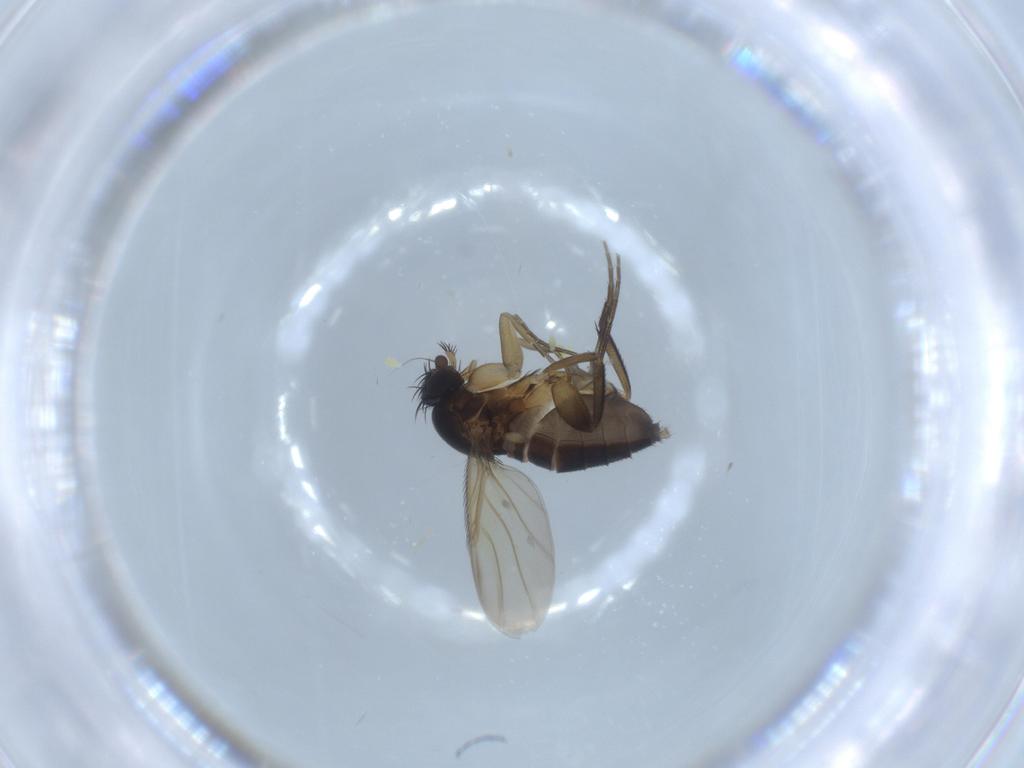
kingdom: Animalia
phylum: Arthropoda
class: Insecta
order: Diptera
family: Phoridae
